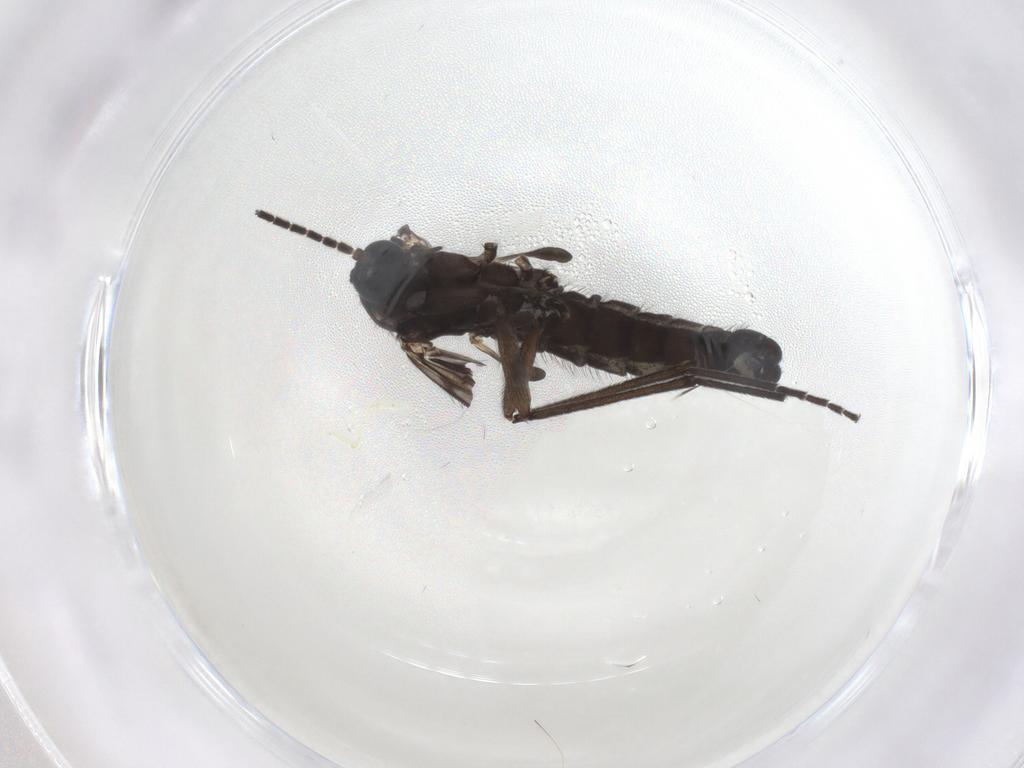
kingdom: Animalia
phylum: Arthropoda
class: Insecta
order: Diptera
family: Sciaridae
